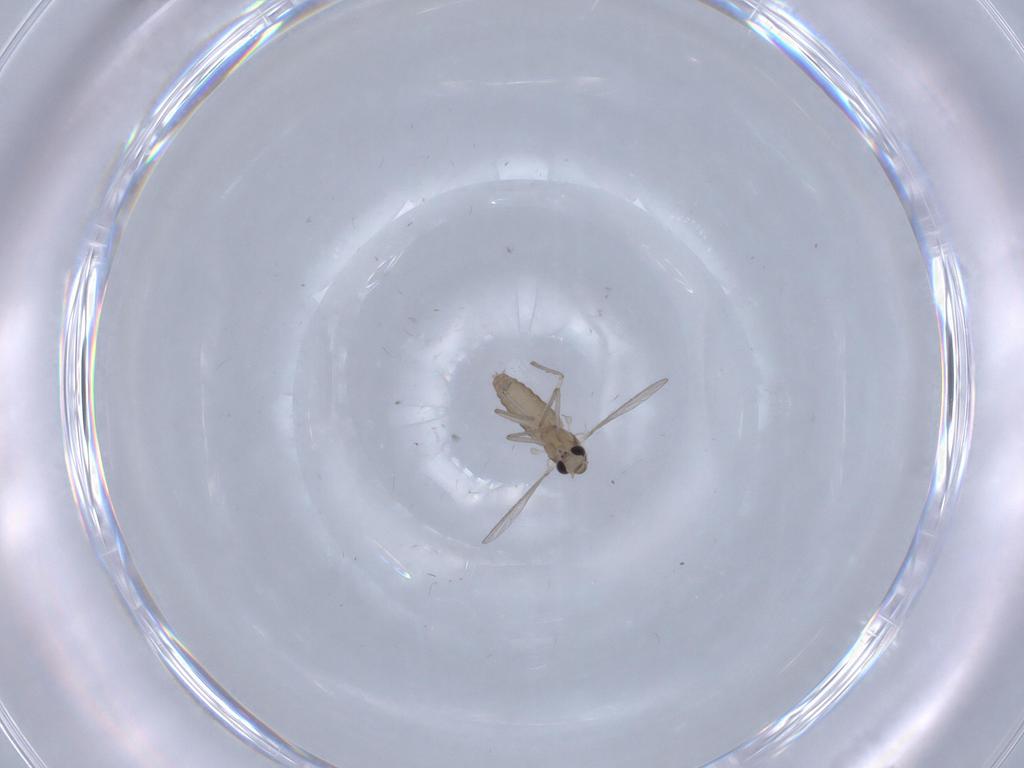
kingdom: Animalia
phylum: Arthropoda
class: Insecta
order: Diptera
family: Chironomidae
